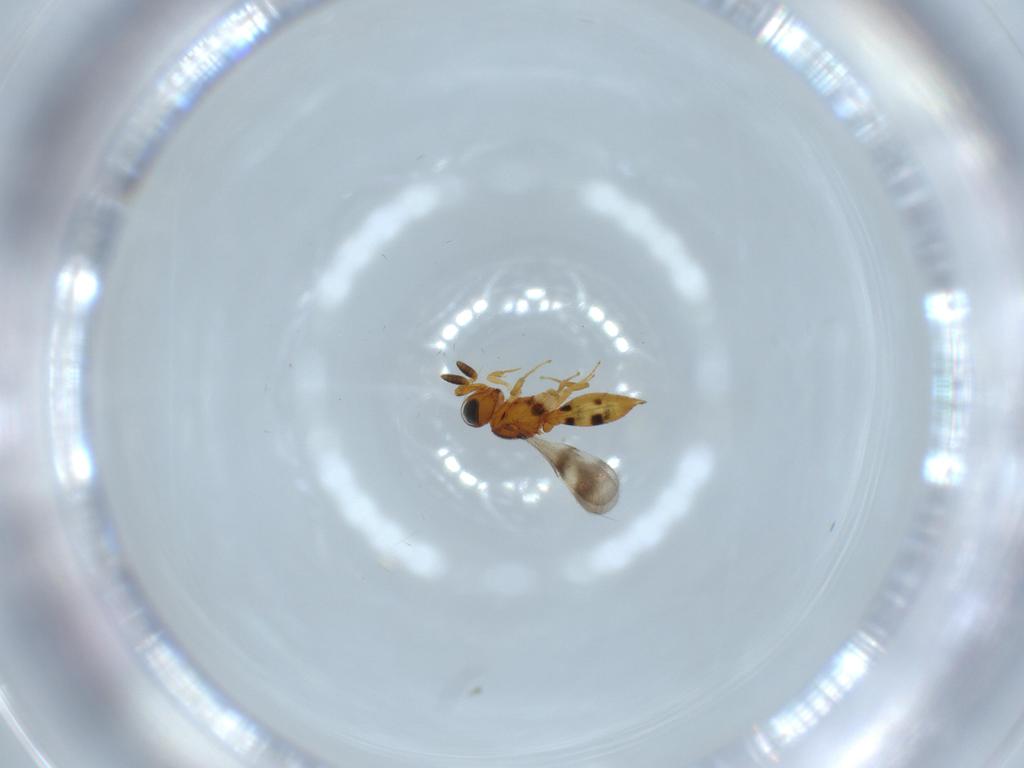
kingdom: Animalia
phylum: Arthropoda
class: Insecta
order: Hymenoptera
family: Scelionidae
